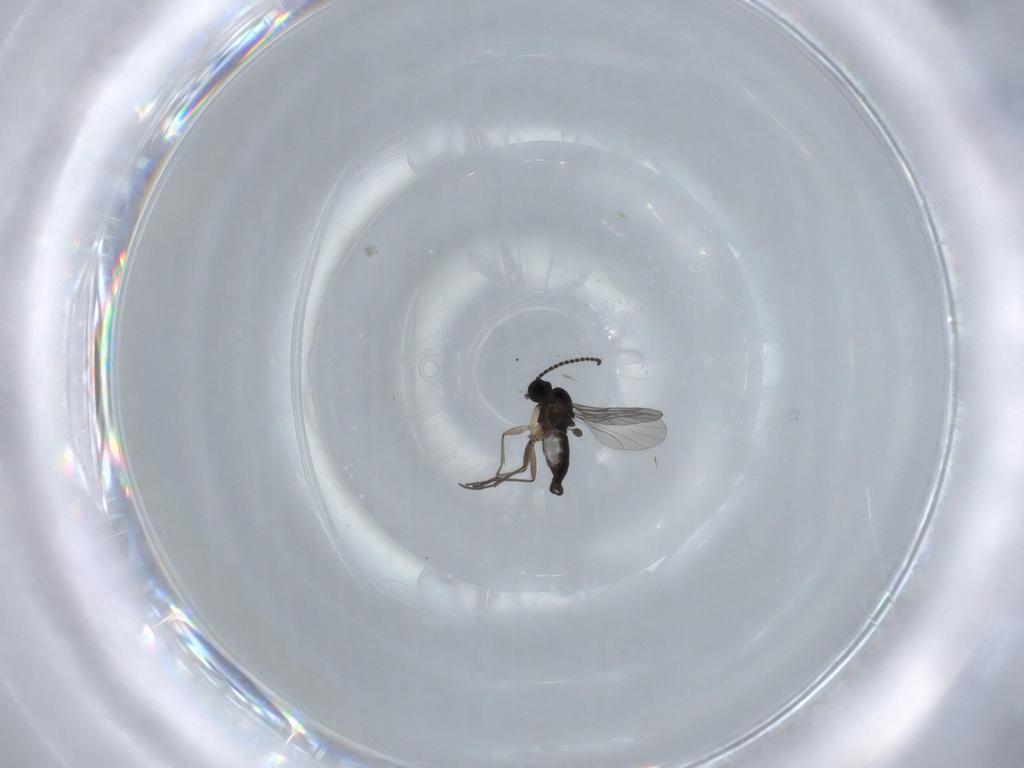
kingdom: Animalia
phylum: Arthropoda
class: Insecta
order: Diptera
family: Sciaridae
